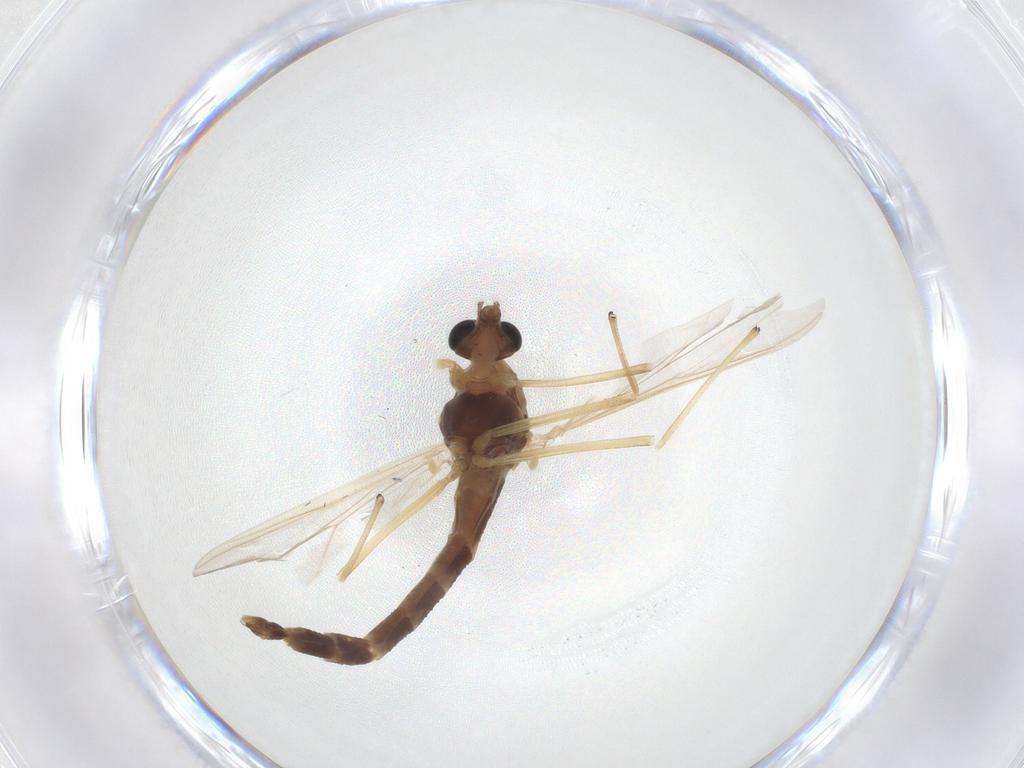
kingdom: Animalia
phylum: Arthropoda
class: Insecta
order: Diptera
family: Chironomidae
